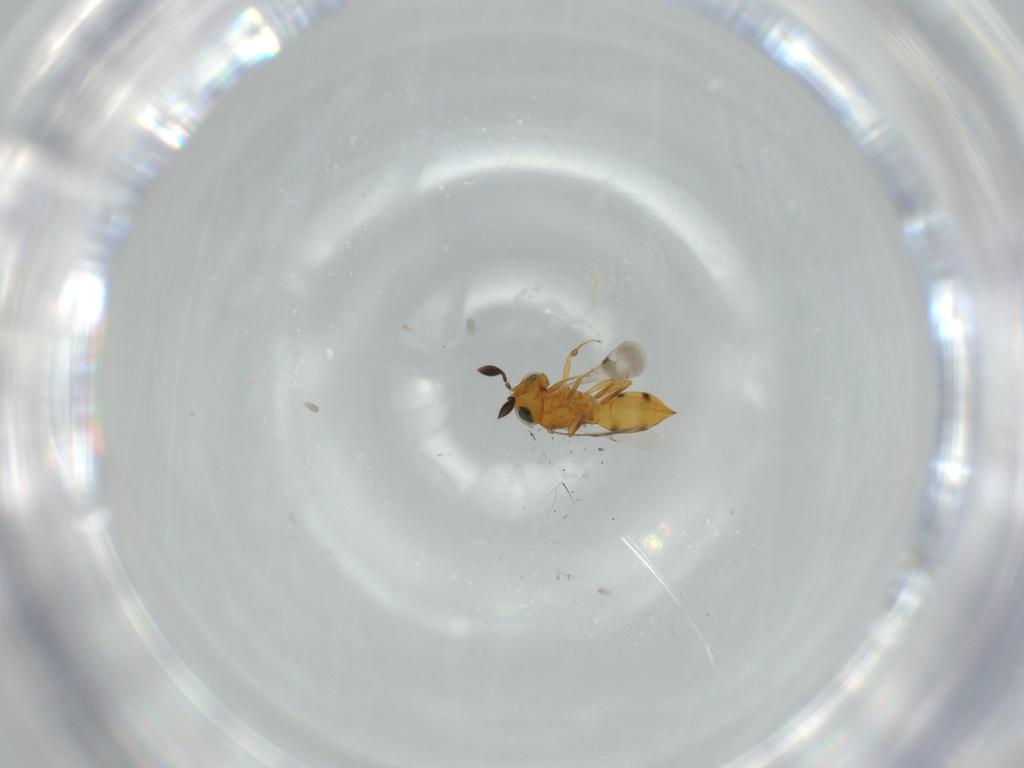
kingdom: Animalia
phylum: Arthropoda
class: Insecta
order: Hymenoptera
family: Scelionidae
